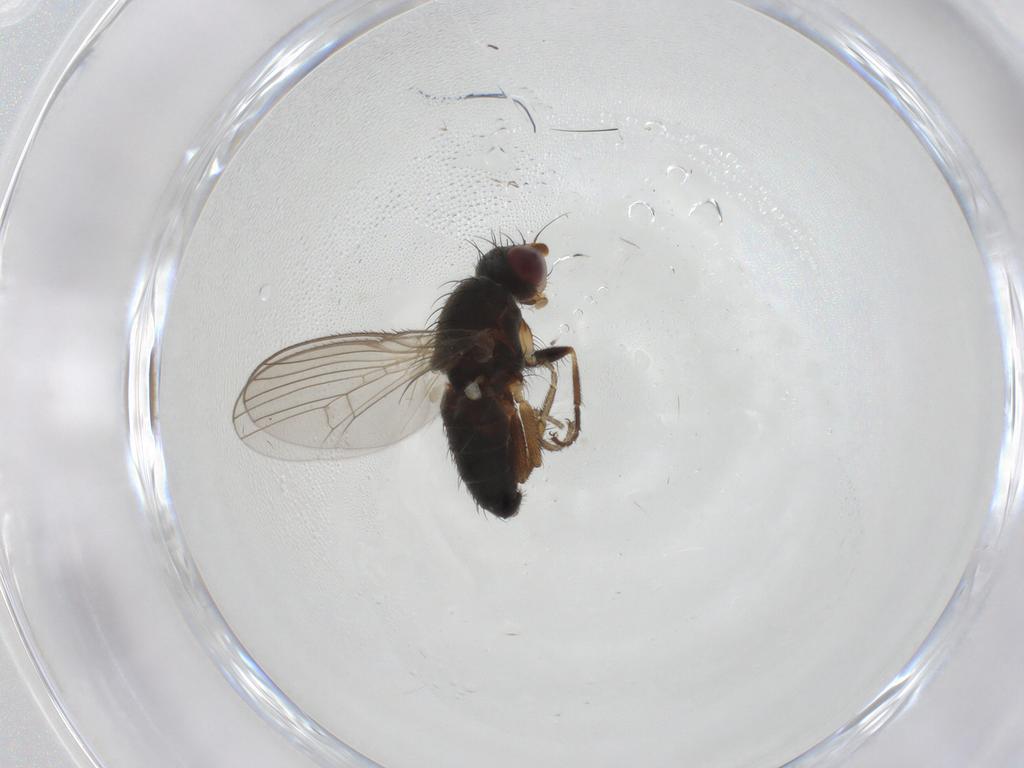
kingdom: Animalia
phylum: Arthropoda
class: Insecta
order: Diptera
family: Heleomyzidae
